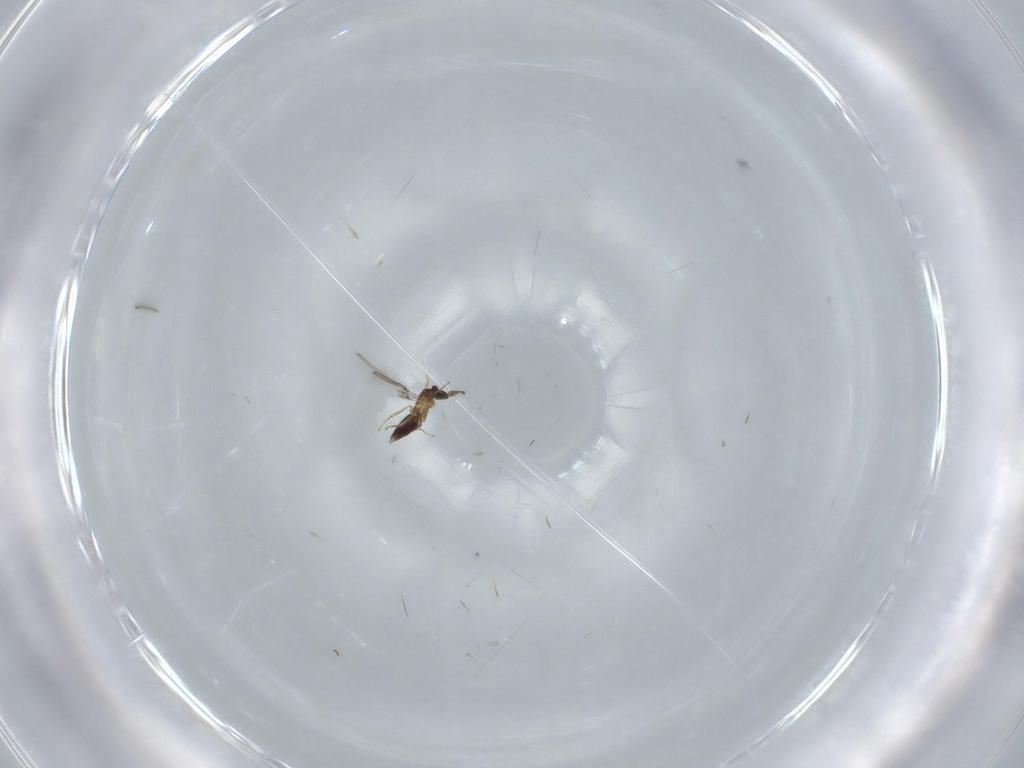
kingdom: Animalia
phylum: Arthropoda
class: Insecta
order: Hymenoptera
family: Mymaridae
